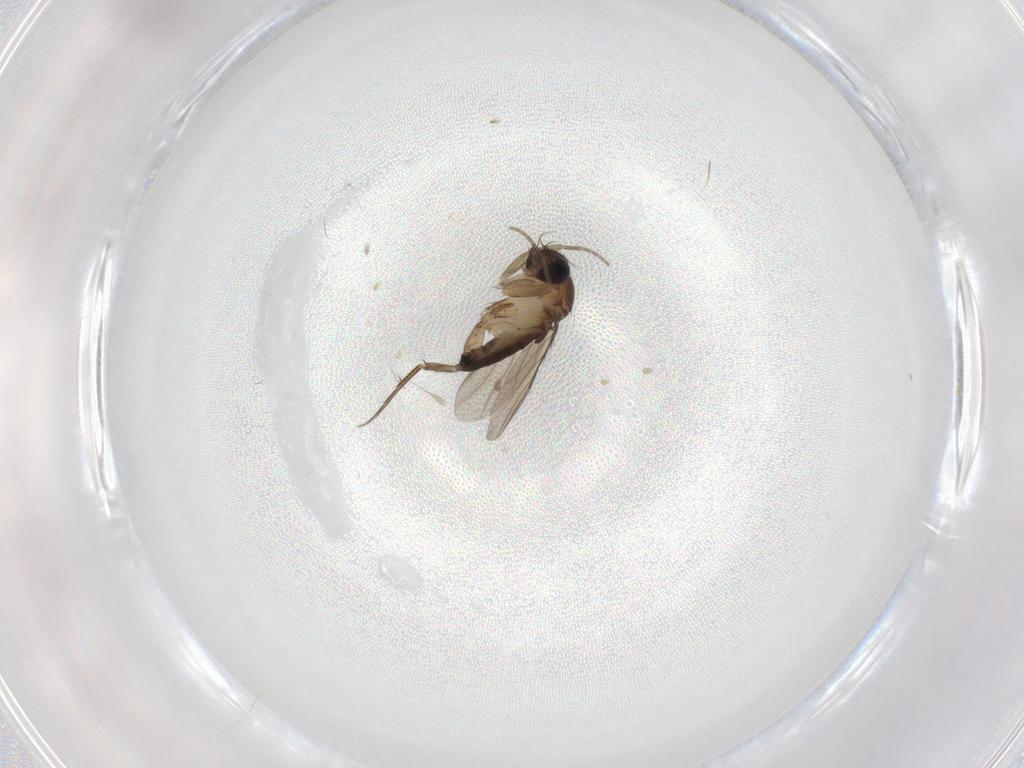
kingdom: Animalia
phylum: Arthropoda
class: Insecta
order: Diptera
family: Phoridae
